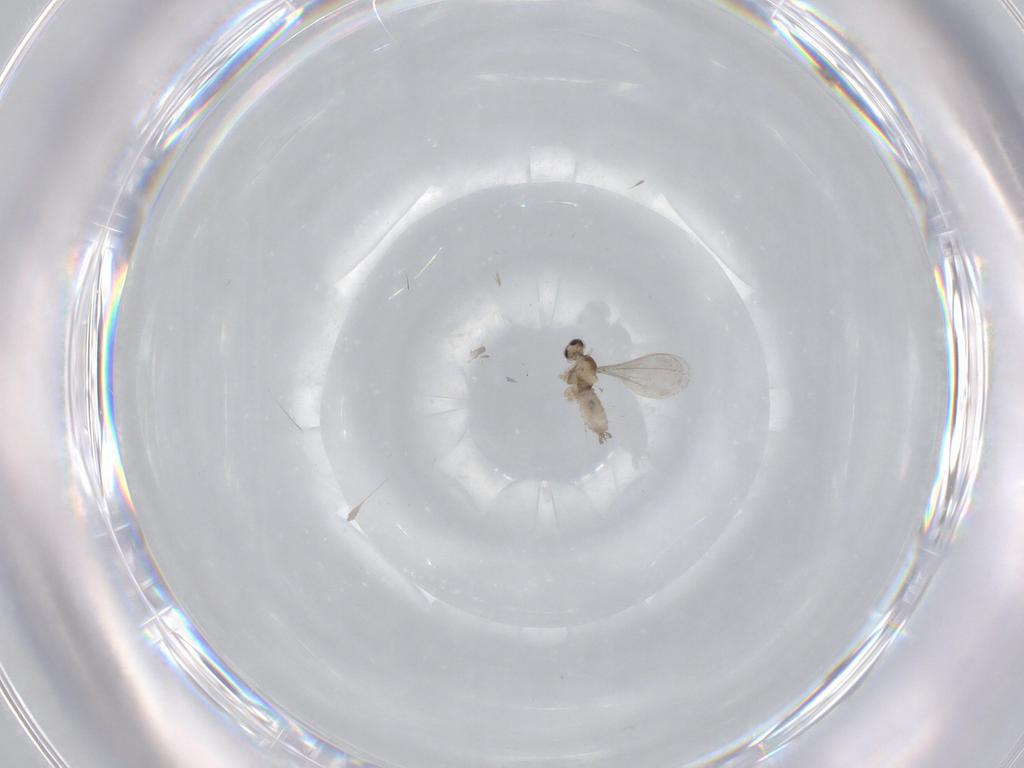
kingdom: Animalia
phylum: Arthropoda
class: Insecta
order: Diptera
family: Cecidomyiidae
